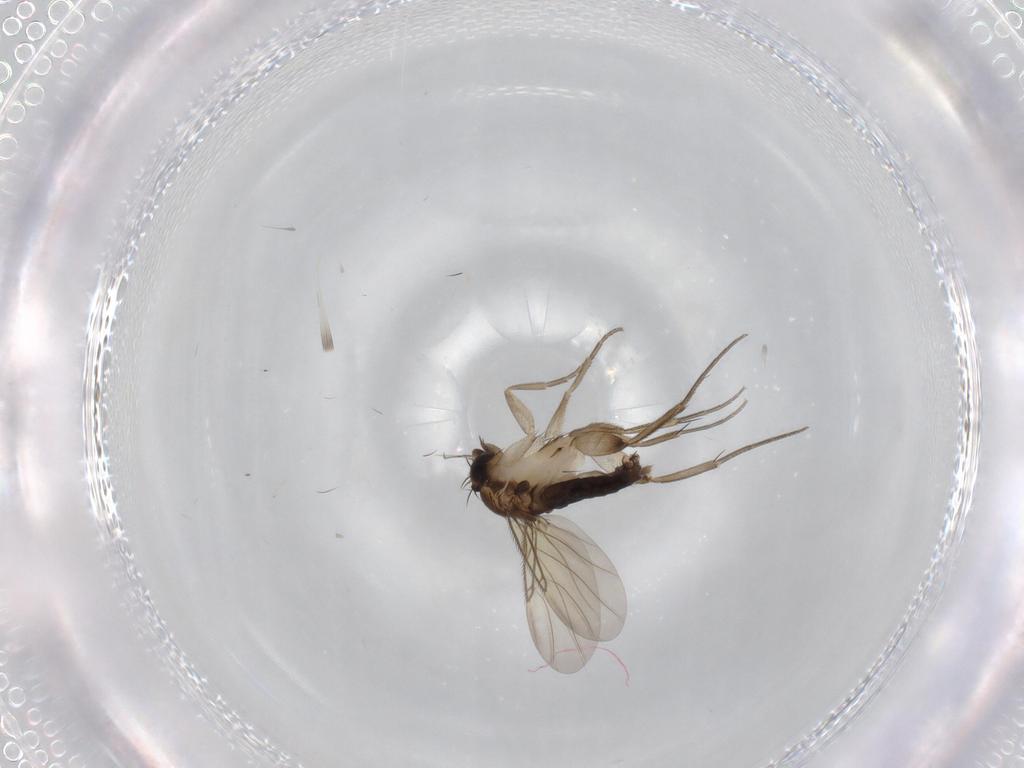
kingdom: Animalia
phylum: Arthropoda
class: Insecta
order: Diptera
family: Phoridae
